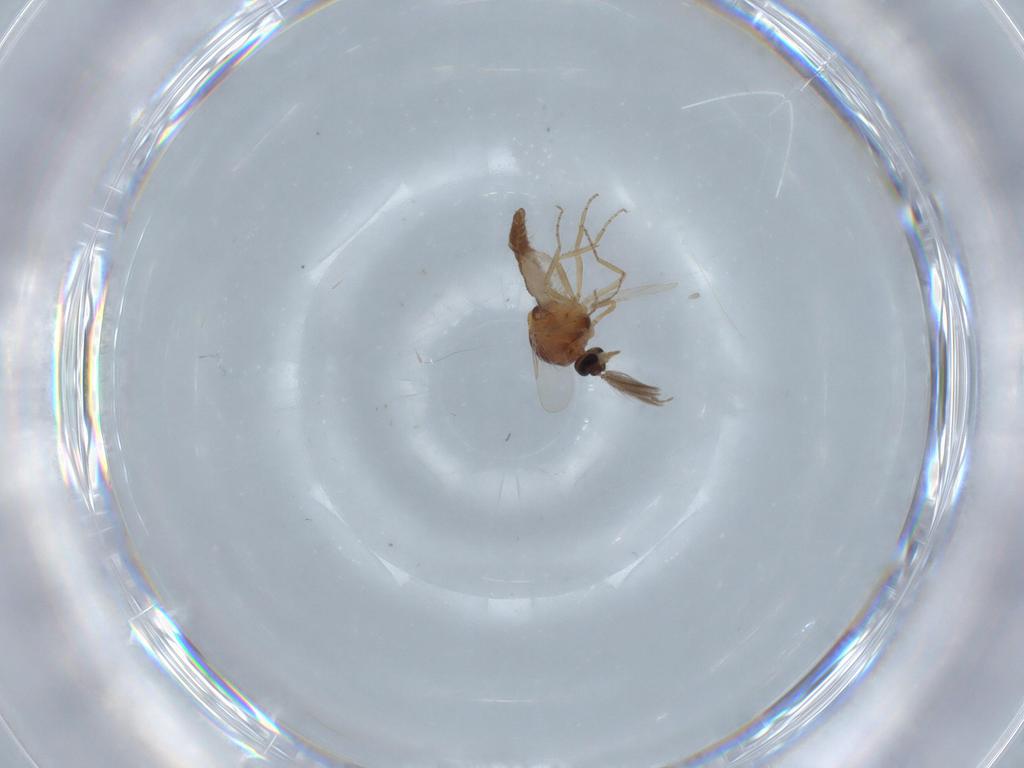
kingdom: Animalia
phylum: Arthropoda
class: Insecta
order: Diptera
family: Ceratopogonidae
